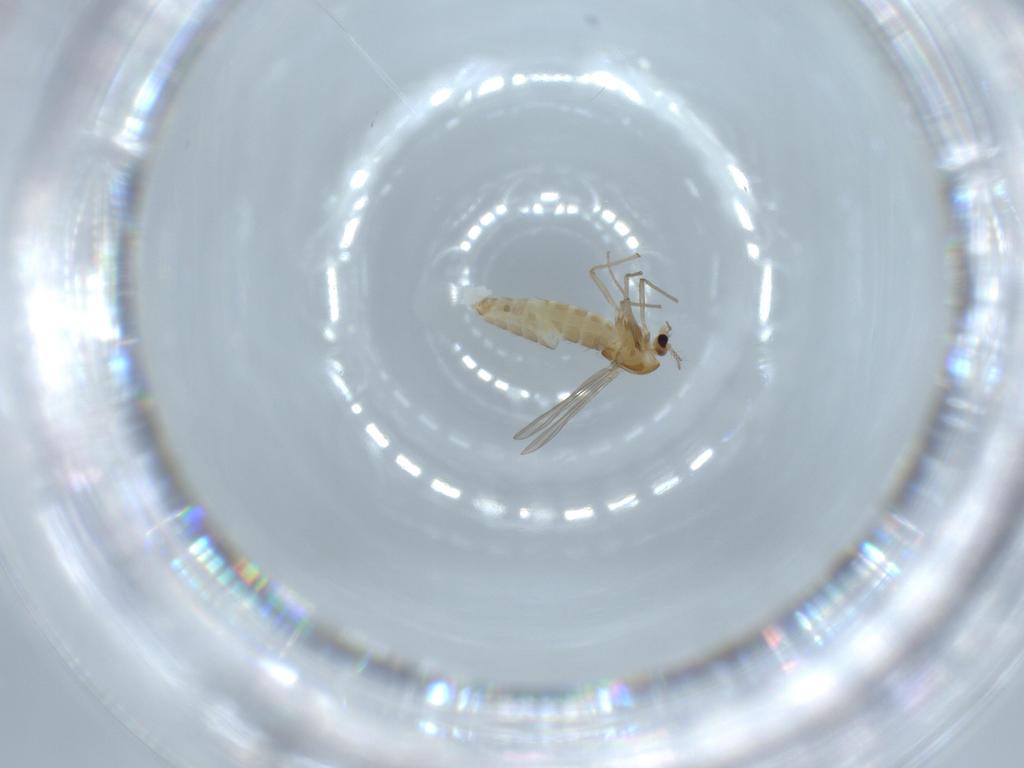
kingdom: Animalia
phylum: Arthropoda
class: Insecta
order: Diptera
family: Chironomidae
